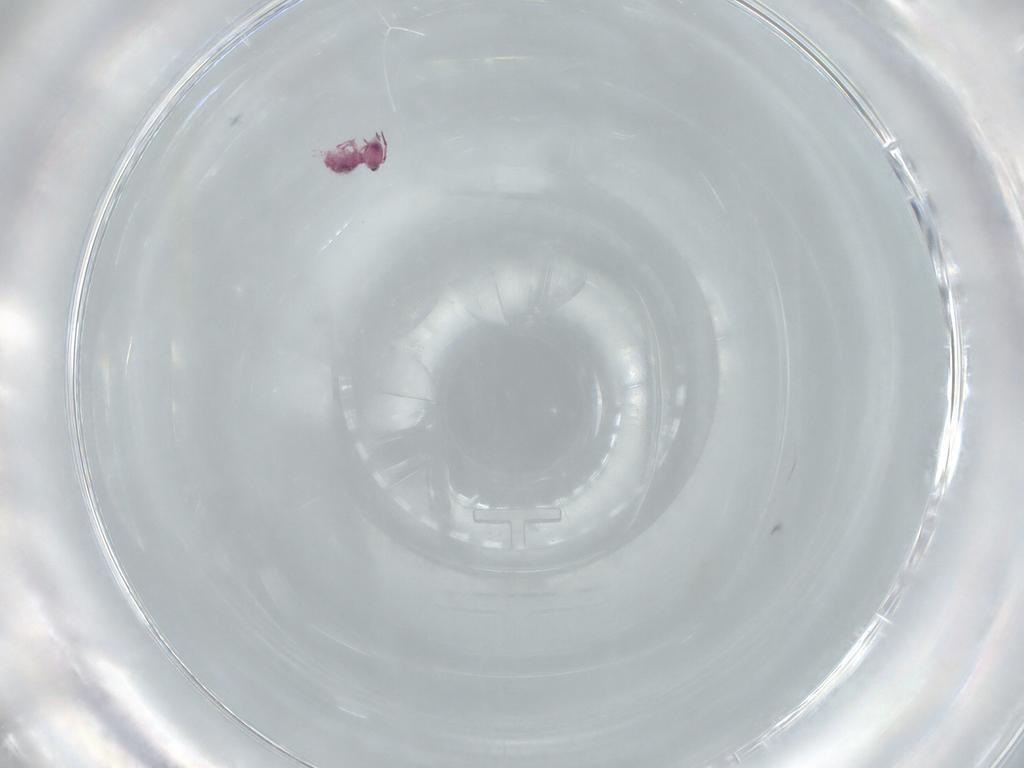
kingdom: Animalia
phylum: Arthropoda
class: Collembola
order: Symphypleona
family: Sminthurididae
